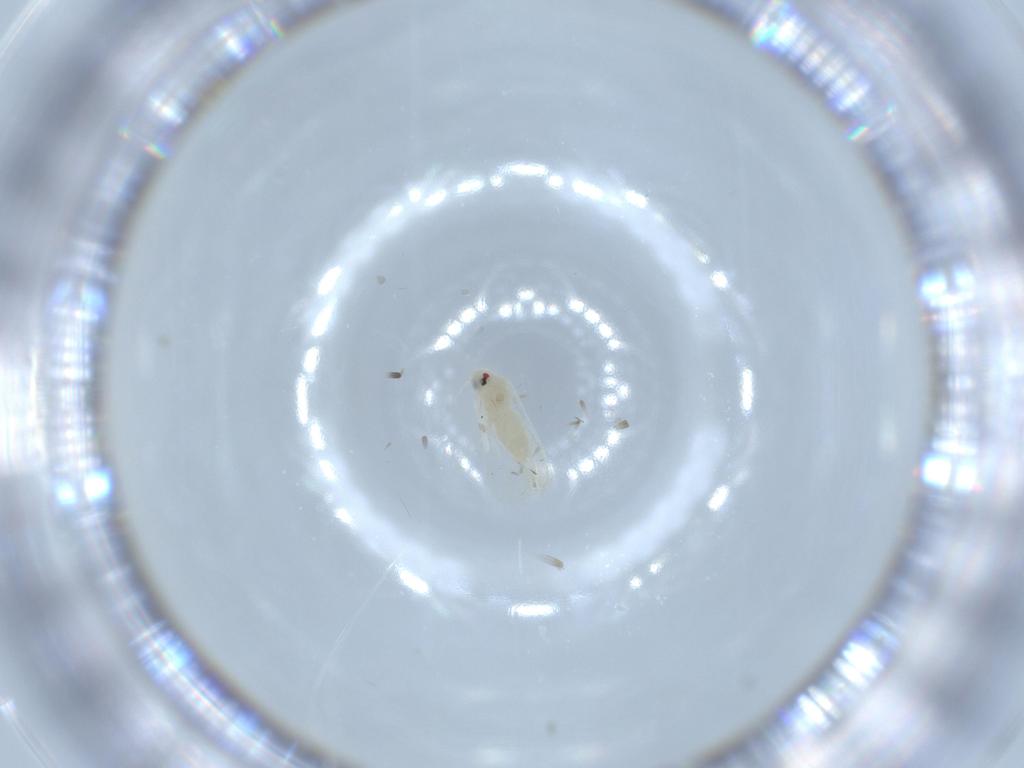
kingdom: Animalia
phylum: Arthropoda
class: Insecta
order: Hemiptera
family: Aleyrodidae
